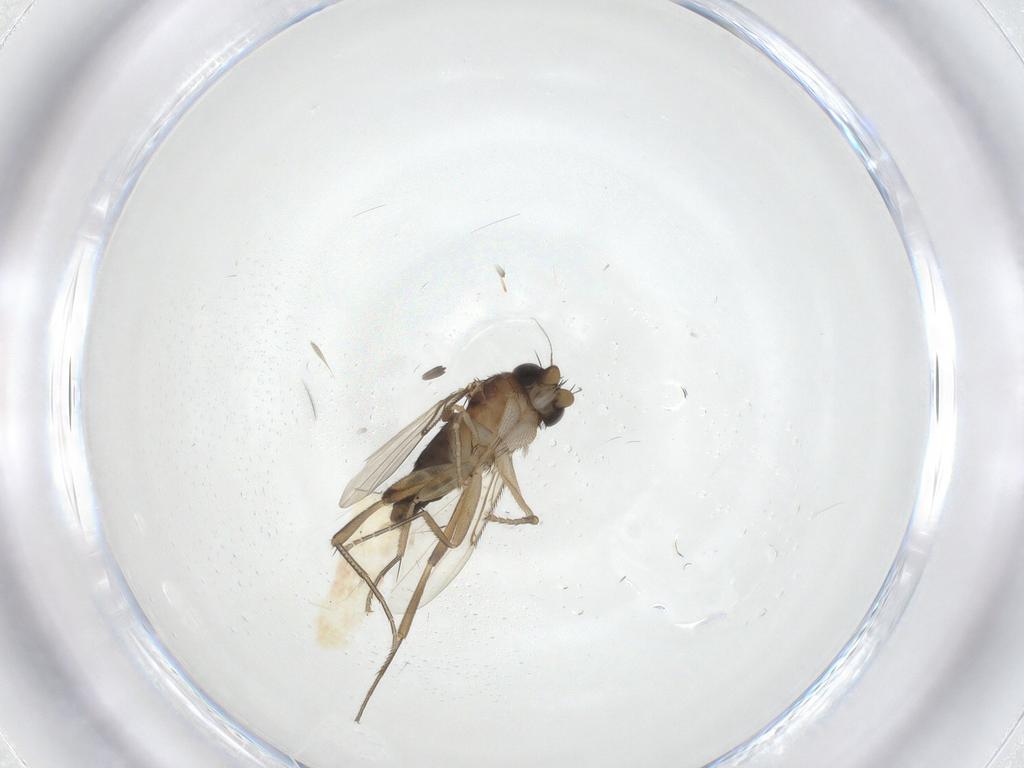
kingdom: Animalia
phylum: Arthropoda
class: Insecta
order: Diptera
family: Phoridae
